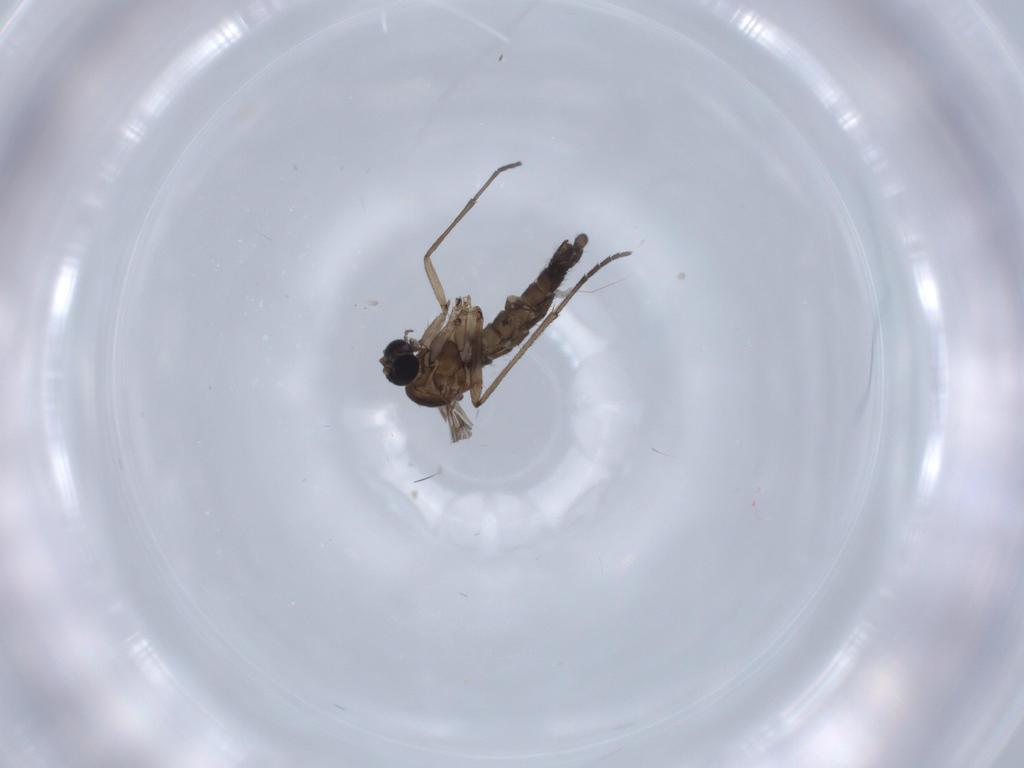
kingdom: Animalia
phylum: Arthropoda
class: Insecta
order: Diptera
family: Sciaridae
